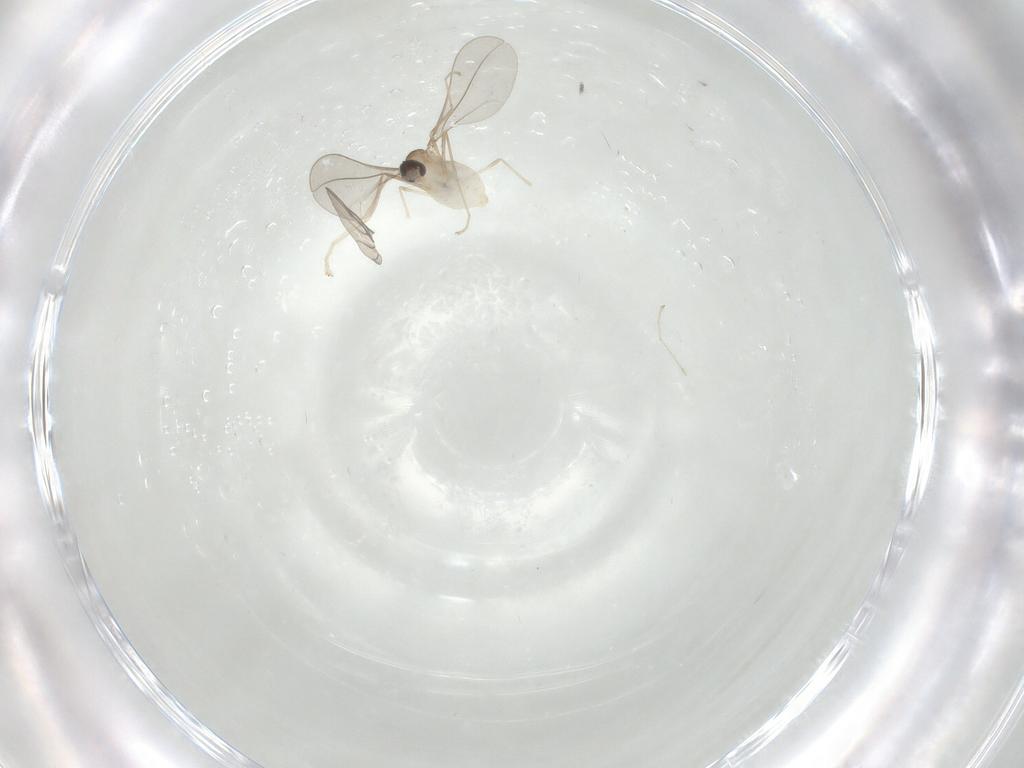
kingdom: Animalia
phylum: Arthropoda
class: Insecta
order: Diptera
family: Cecidomyiidae
